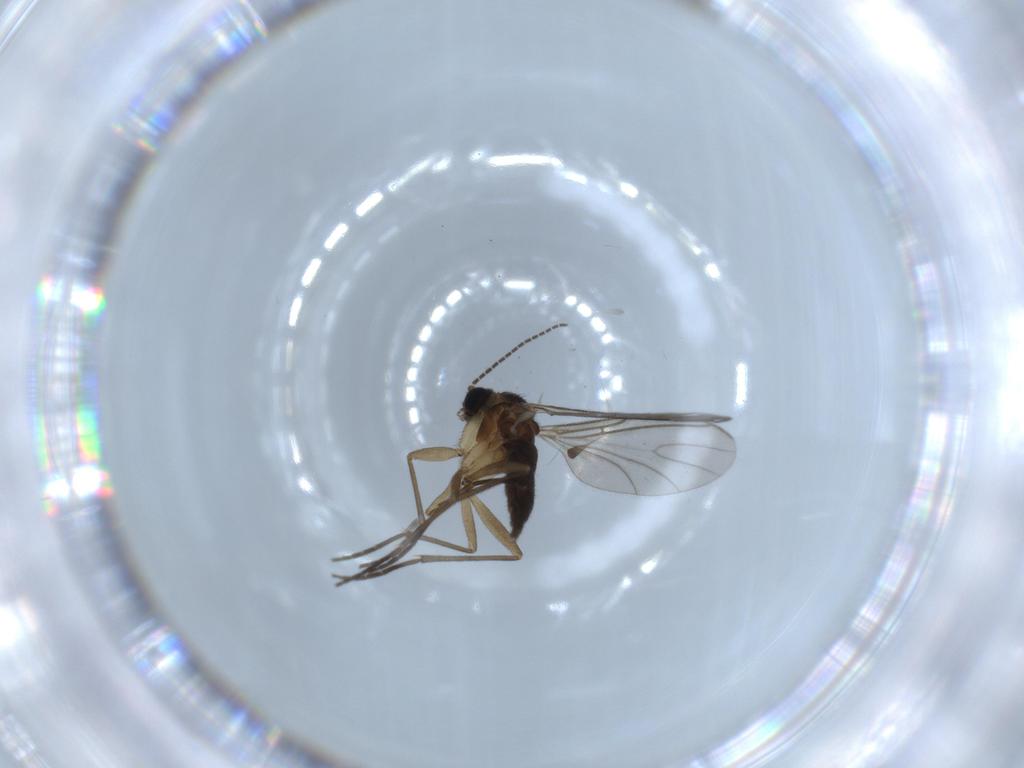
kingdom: Animalia
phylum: Arthropoda
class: Insecta
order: Diptera
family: Sciaridae
